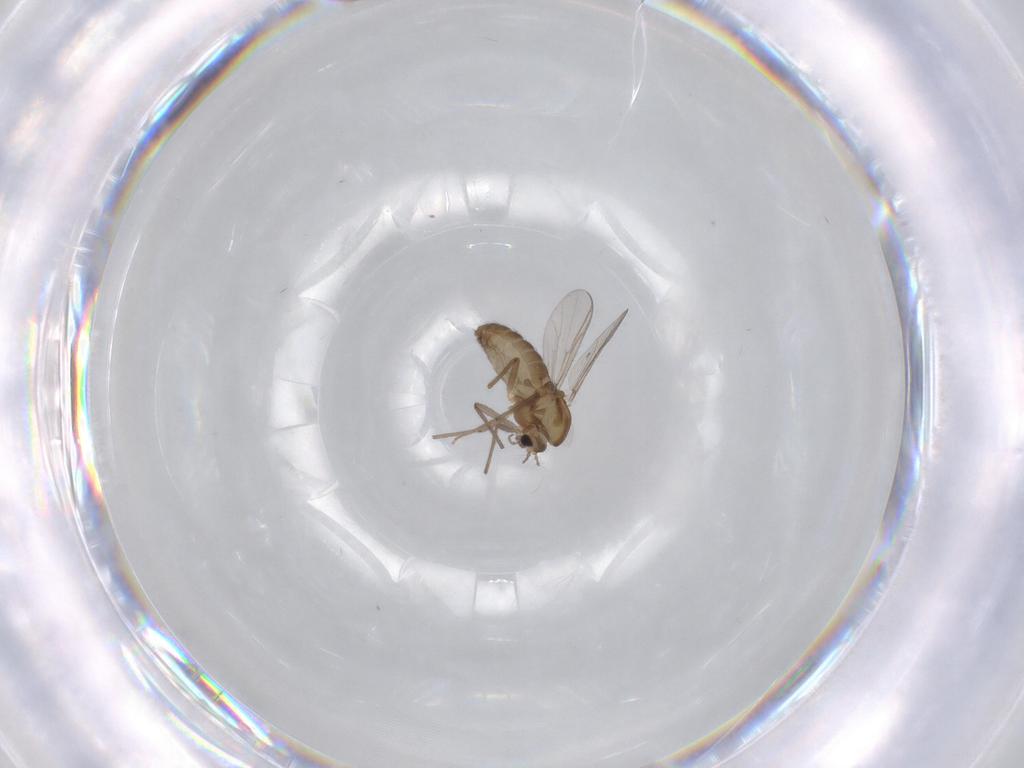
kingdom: Animalia
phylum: Arthropoda
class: Insecta
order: Diptera
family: Chironomidae
